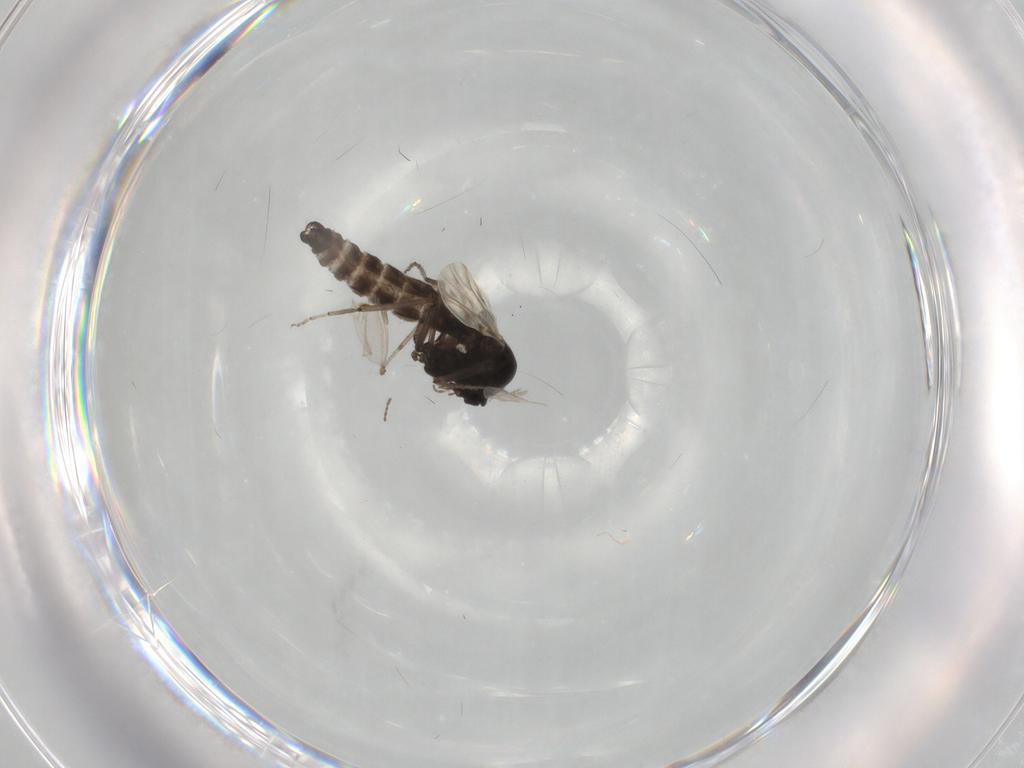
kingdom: Animalia
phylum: Arthropoda
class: Insecta
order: Diptera
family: Chironomidae
